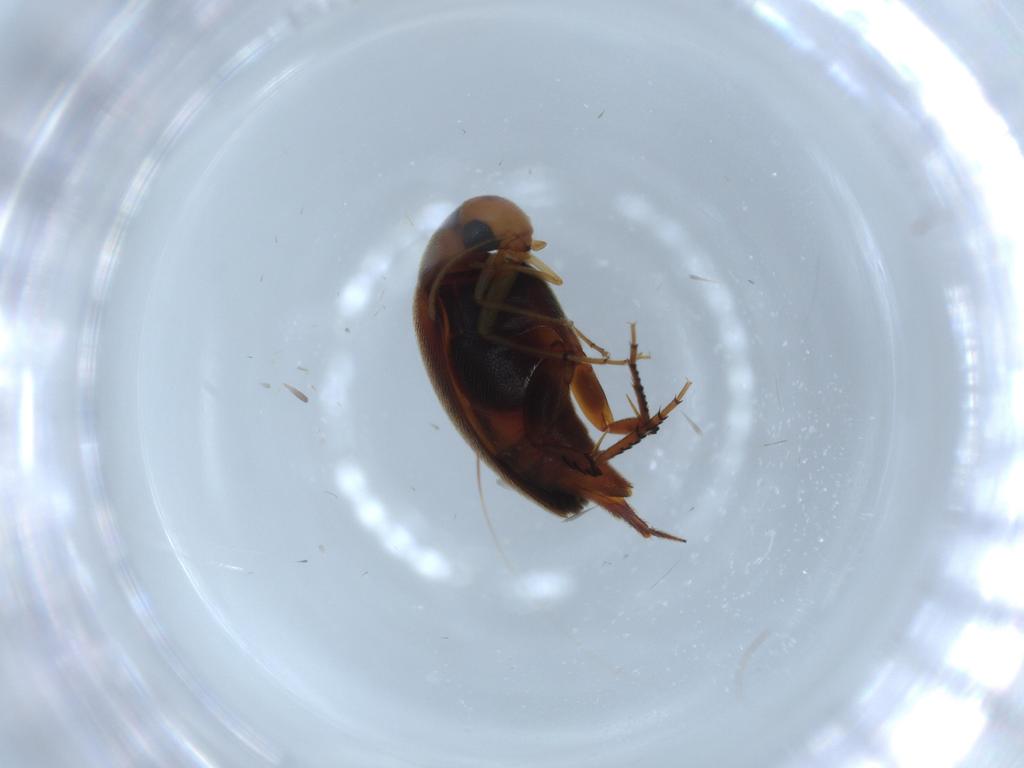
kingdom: Animalia
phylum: Arthropoda
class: Insecta
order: Coleoptera
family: Mordellidae
